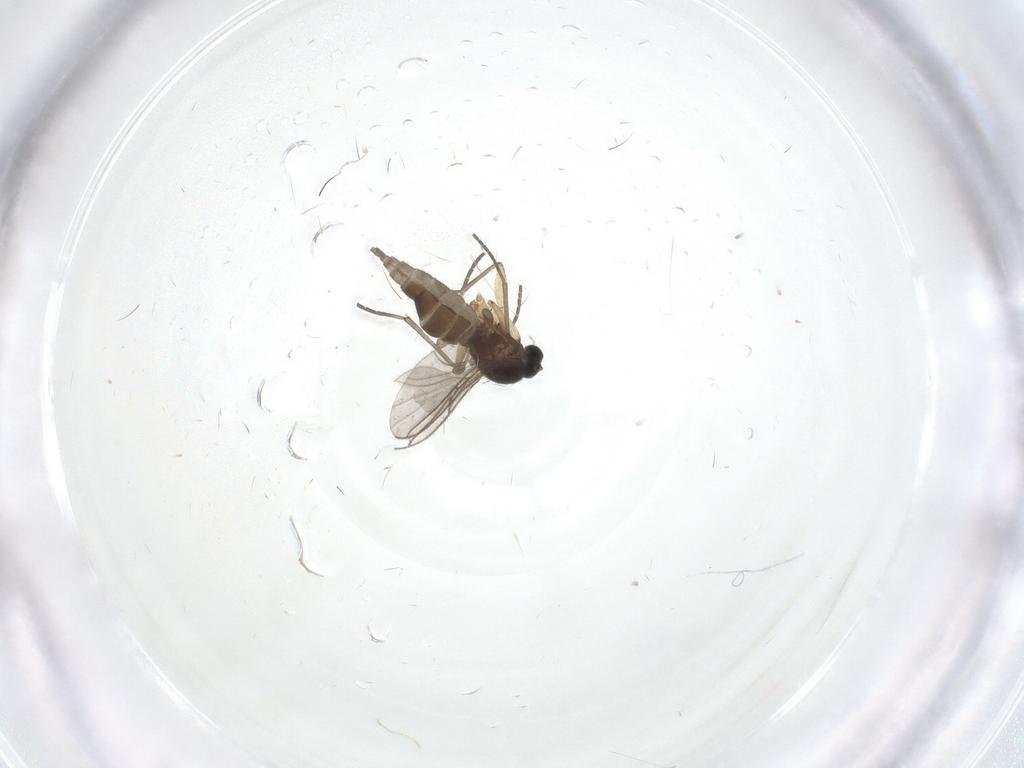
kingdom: Animalia
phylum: Arthropoda
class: Insecta
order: Diptera
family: Sciaridae
